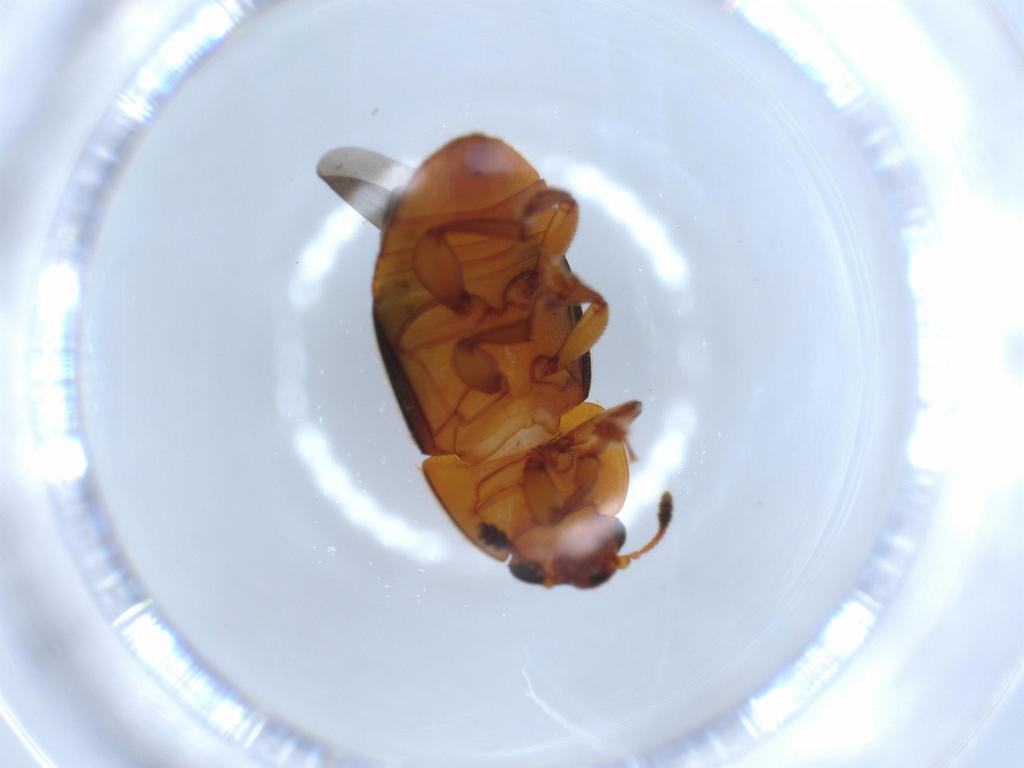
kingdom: Animalia
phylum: Arthropoda
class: Insecta
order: Coleoptera
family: Nitidulidae
